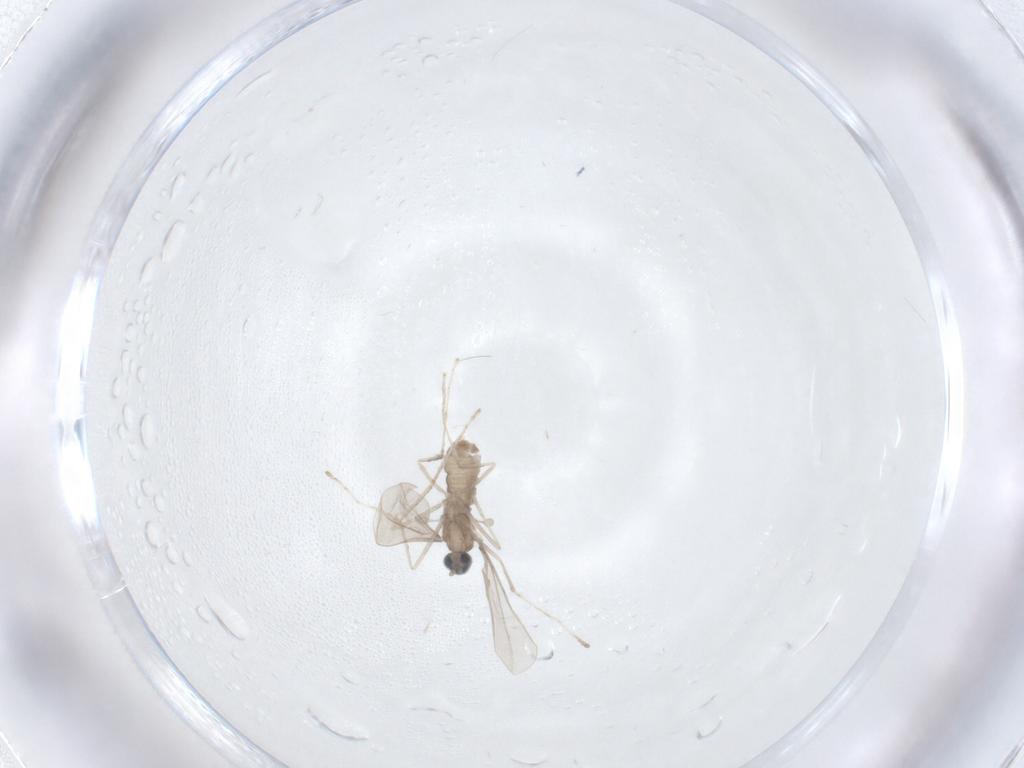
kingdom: Animalia
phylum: Arthropoda
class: Insecta
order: Diptera
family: Cecidomyiidae
